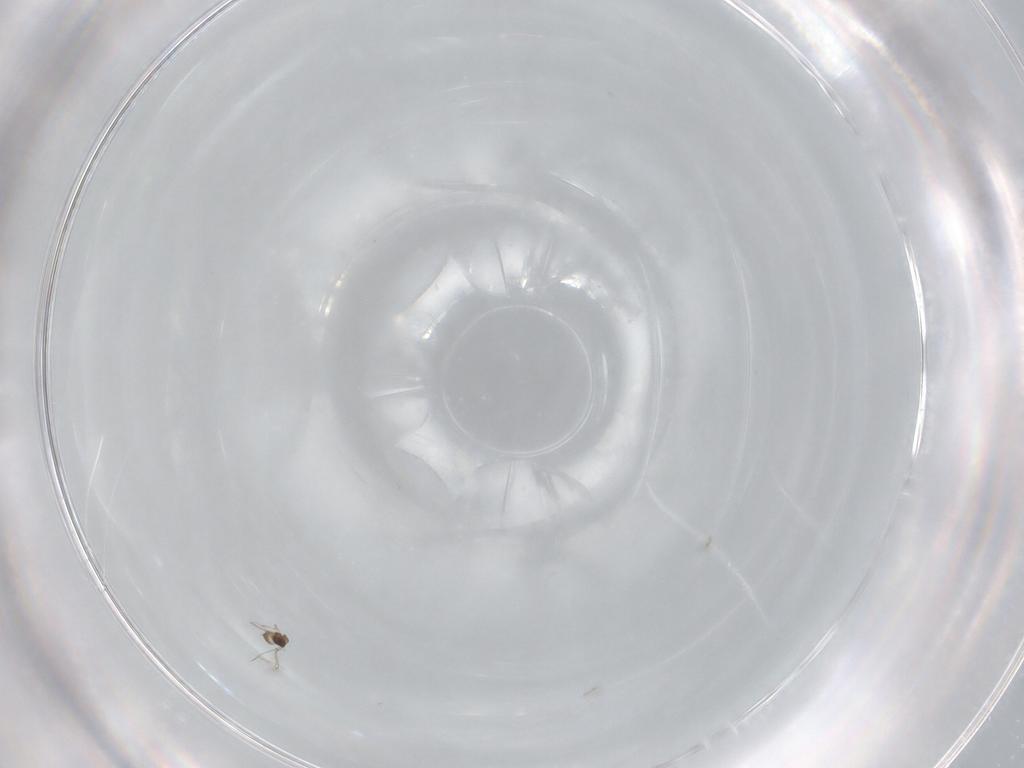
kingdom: Animalia
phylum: Arthropoda
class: Insecta
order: Hymenoptera
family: Mymaridae
